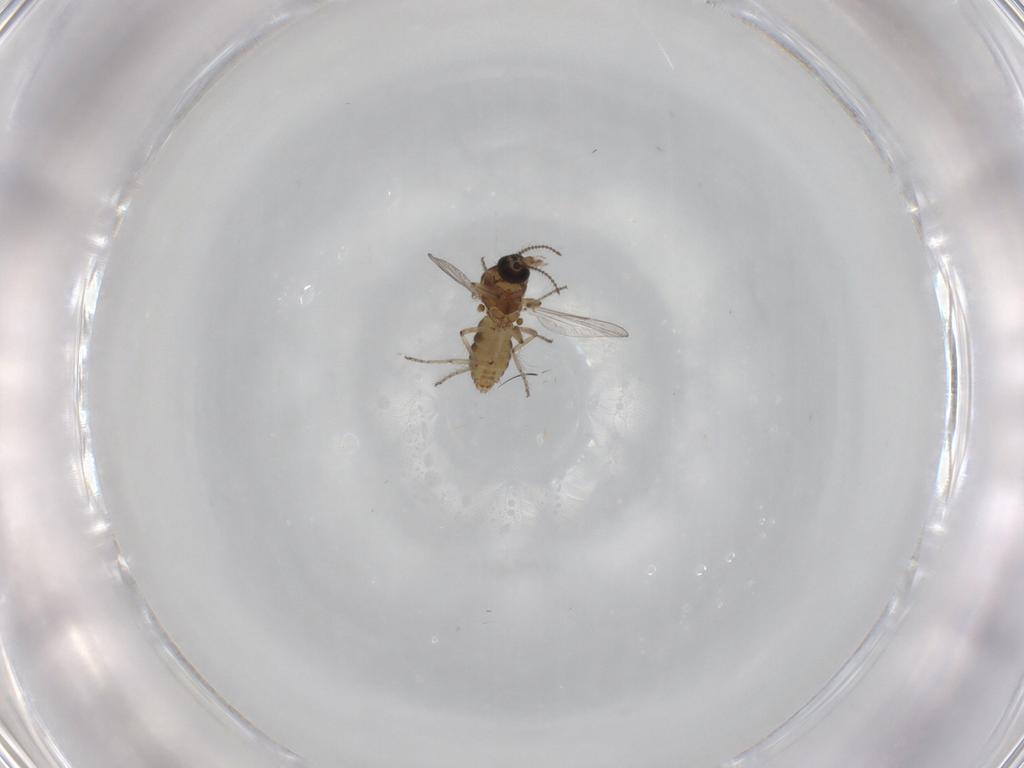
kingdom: Animalia
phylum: Arthropoda
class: Insecta
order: Diptera
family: Ceratopogonidae
